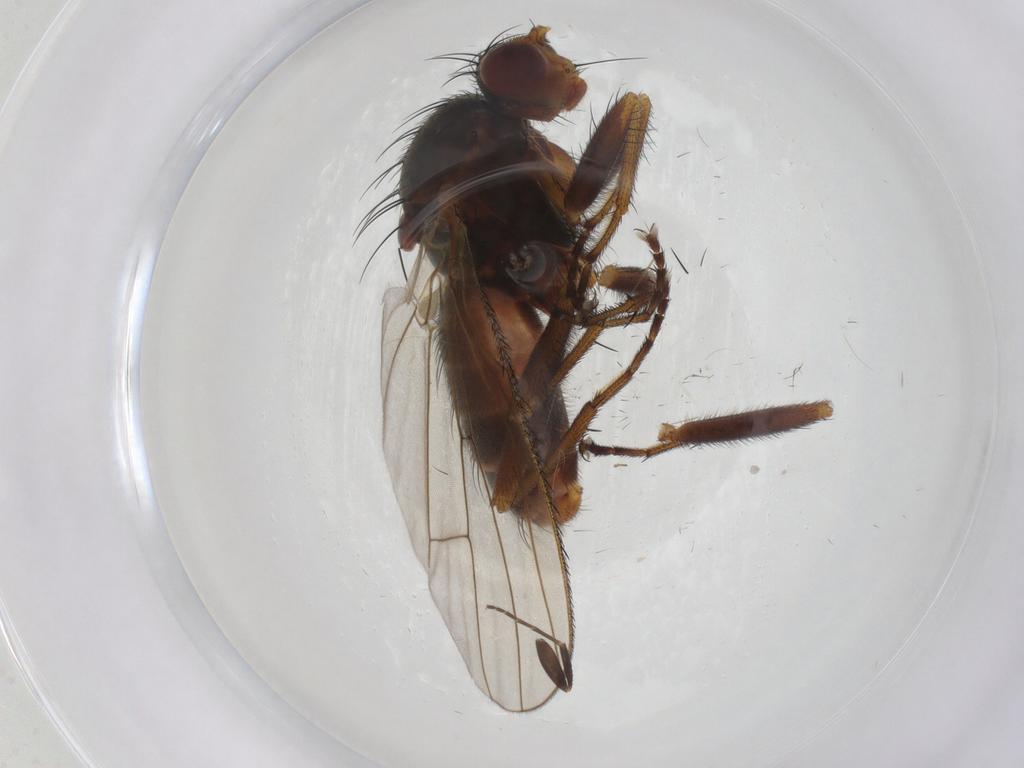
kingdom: Animalia
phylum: Arthropoda
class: Insecta
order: Diptera
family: Heleomyzidae
